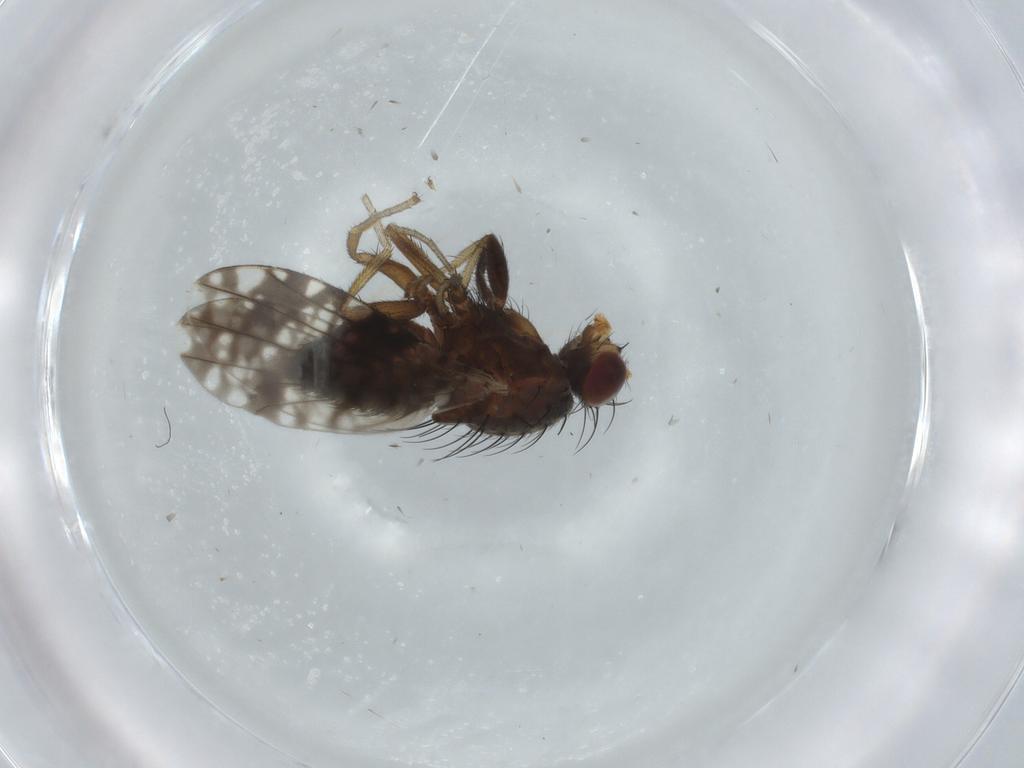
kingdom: Animalia
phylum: Arthropoda
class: Insecta
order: Diptera
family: Tephritidae
